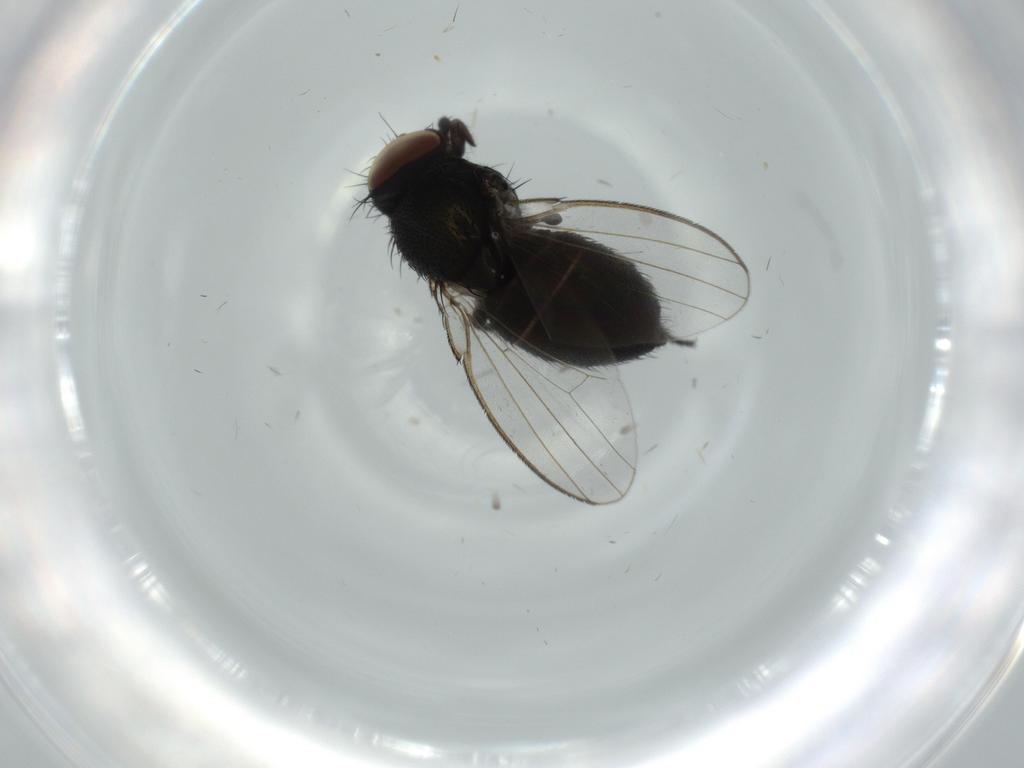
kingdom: Animalia
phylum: Arthropoda
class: Insecta
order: Diptera
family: Milichiidae
